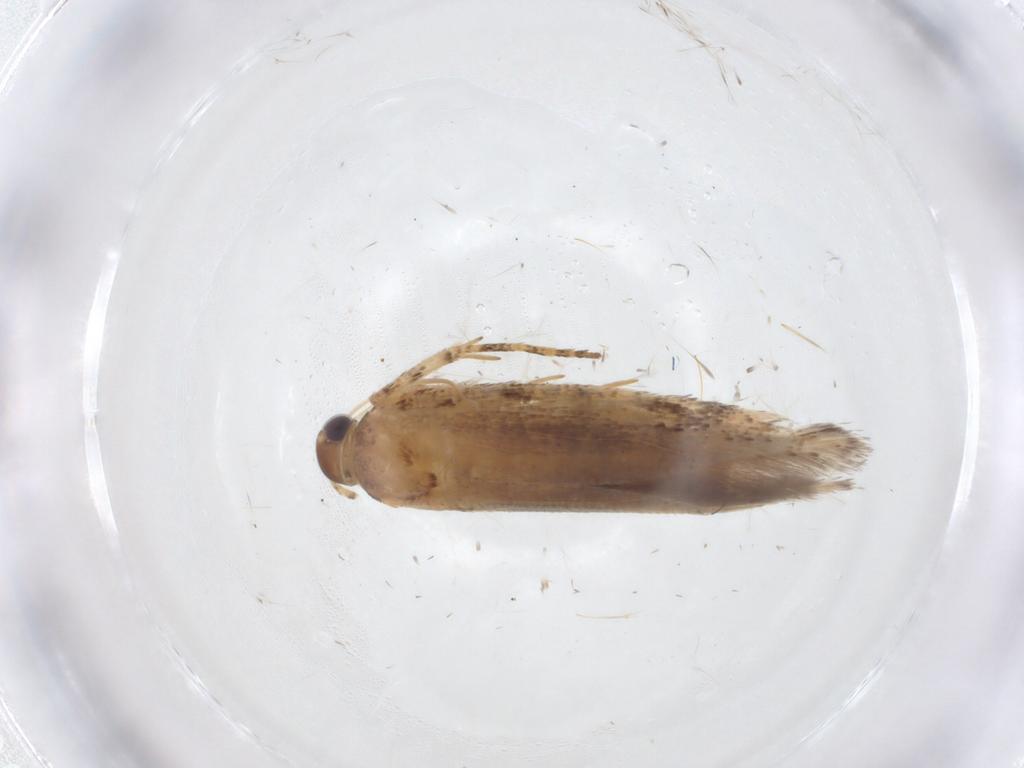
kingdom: Animalia
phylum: Arthropoda
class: Insecta
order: Lepidoptera
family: Gelechiidae
